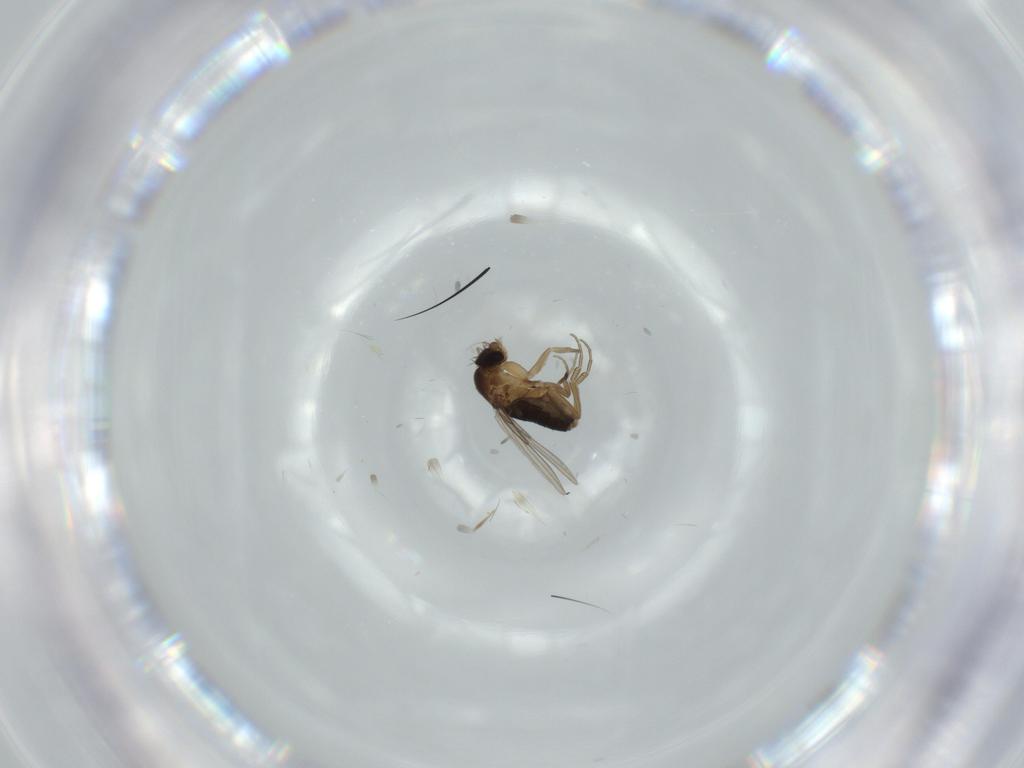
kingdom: Animalia
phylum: Arthropoda
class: Insecta
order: Diptera
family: Phoridae
